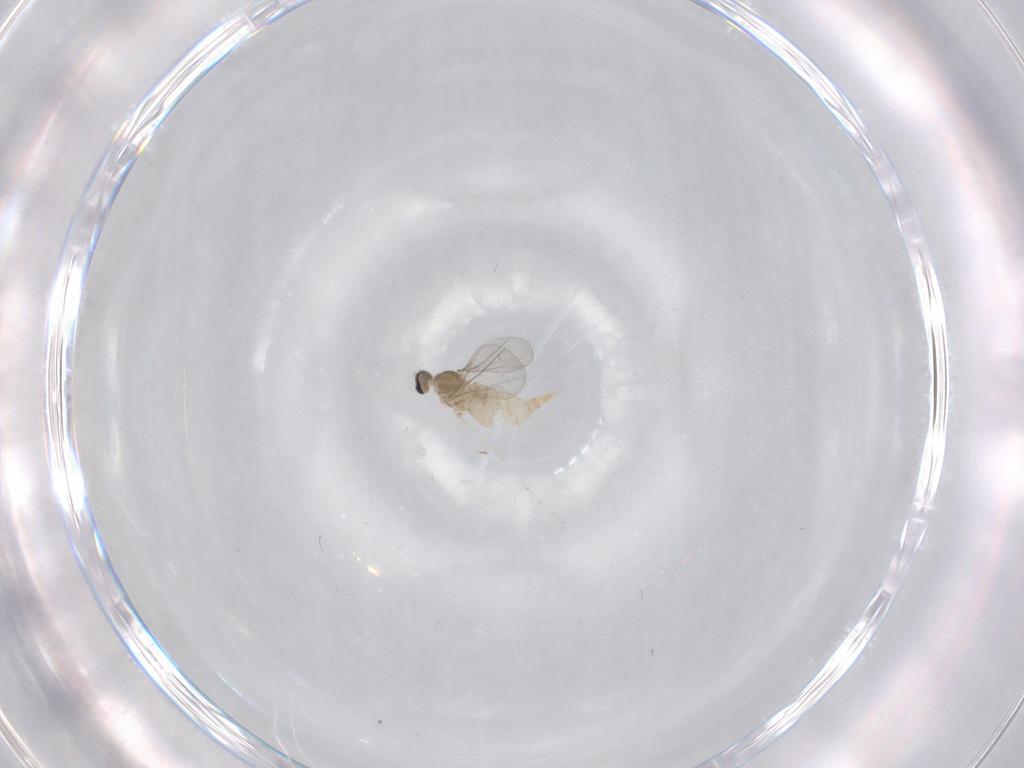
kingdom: Animalia
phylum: Arthropoda
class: Insecta
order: Diptera
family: Cecidomyiidae
